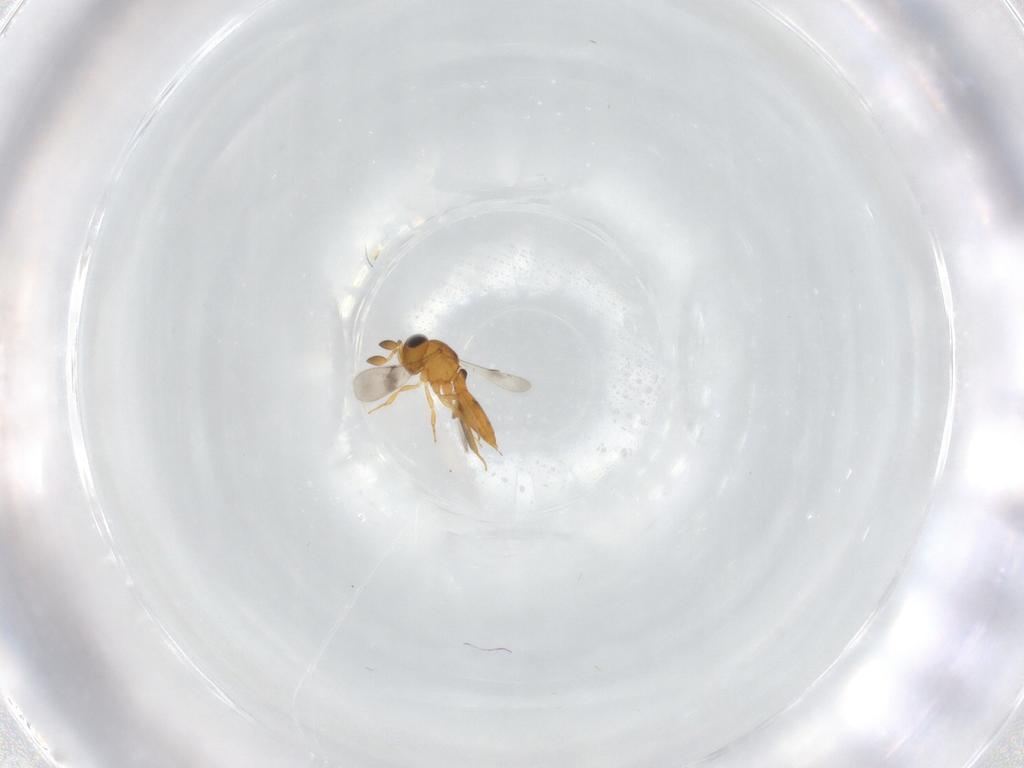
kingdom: Animalia
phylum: Arthropoda
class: Insecta
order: Hymenoptera
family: Scelionidae
